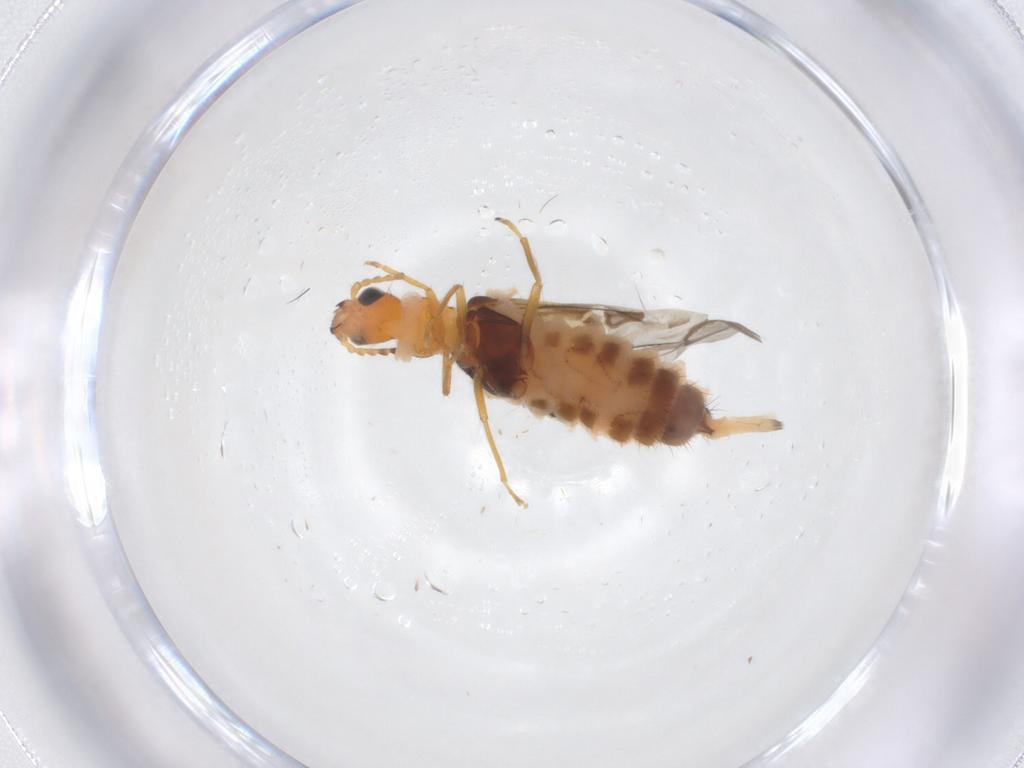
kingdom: Animalia
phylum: Arthropoda
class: Insecta
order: Coleoptera
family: Melyridae
